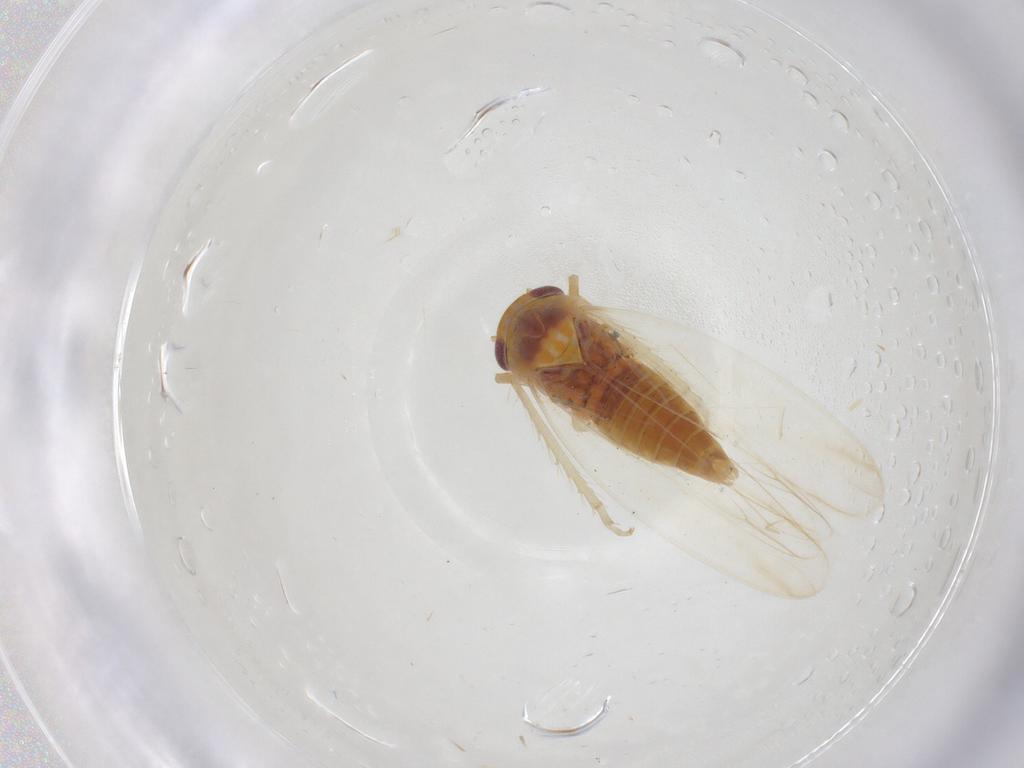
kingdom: Animalia
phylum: Arthropoda
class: Insecta
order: Hemiptera
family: Cicadellidae
